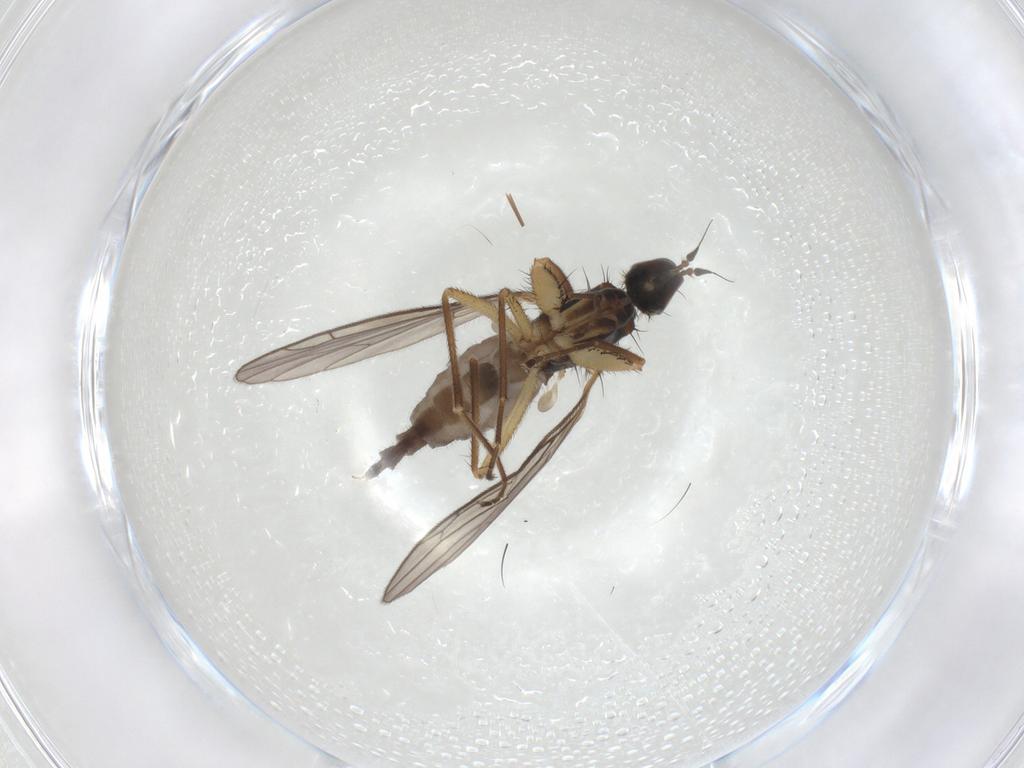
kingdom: Animalia
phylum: Arthropoda
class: Insecta
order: Diptera
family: Empididae
